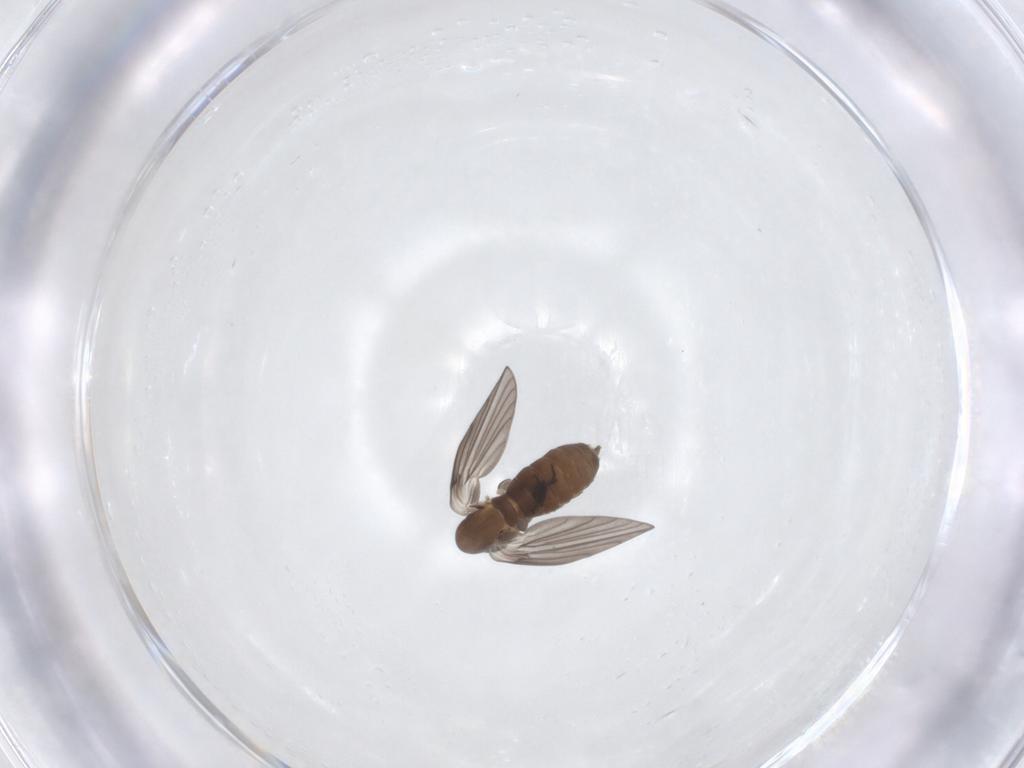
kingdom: Animalia
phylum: Arthropoda
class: Insecta
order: Diptera
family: Psychodidae
